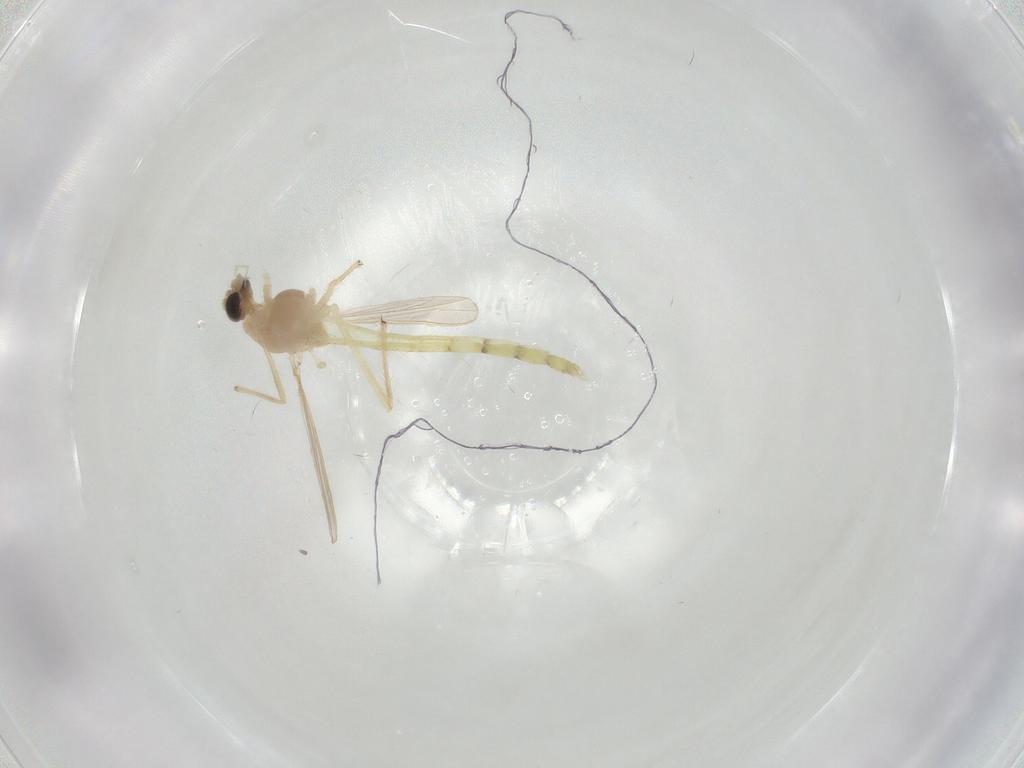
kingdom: Animalia
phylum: Arthropoda
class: Insecta
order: Diptera
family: Chironomidae
